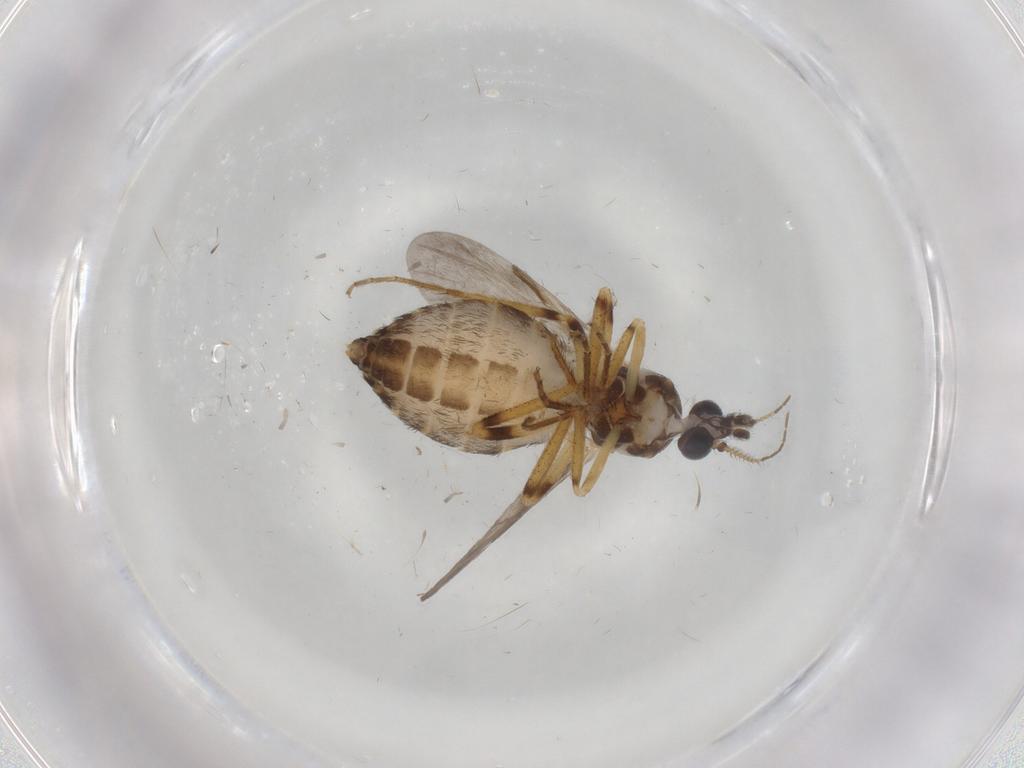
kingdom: Animalia
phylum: Arthropoda
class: Insecta
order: Diptera
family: Ceratopogonidae
